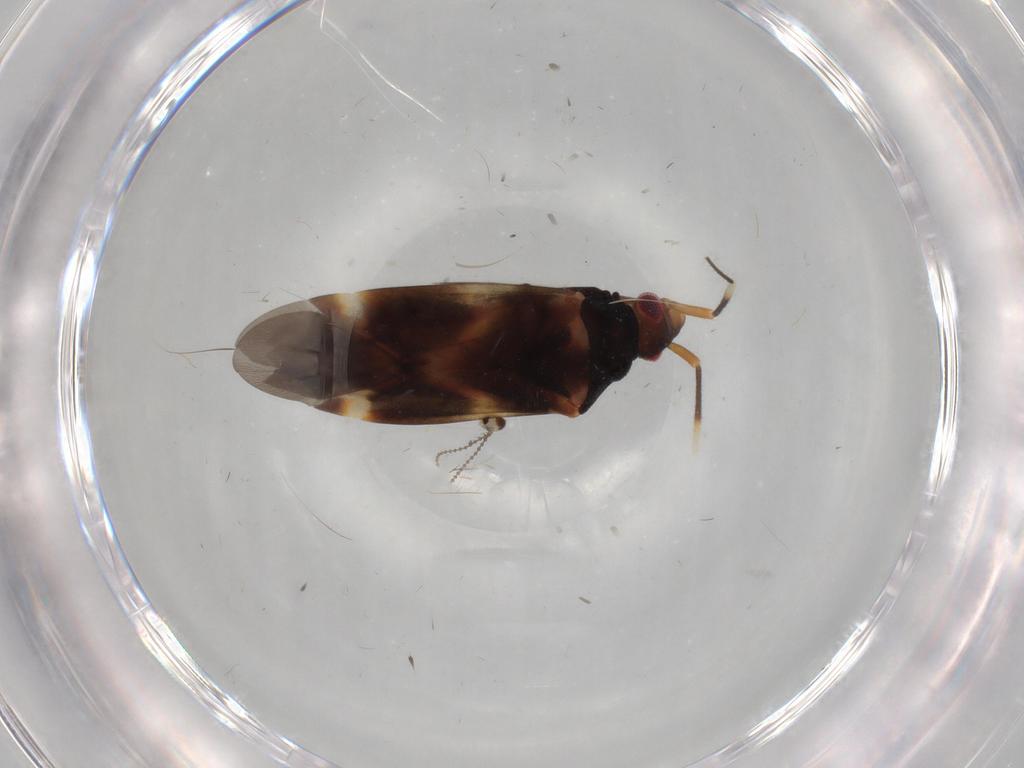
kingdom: Animalia
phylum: Arthropoda
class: Insecta
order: Hemiptera
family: Miridae
